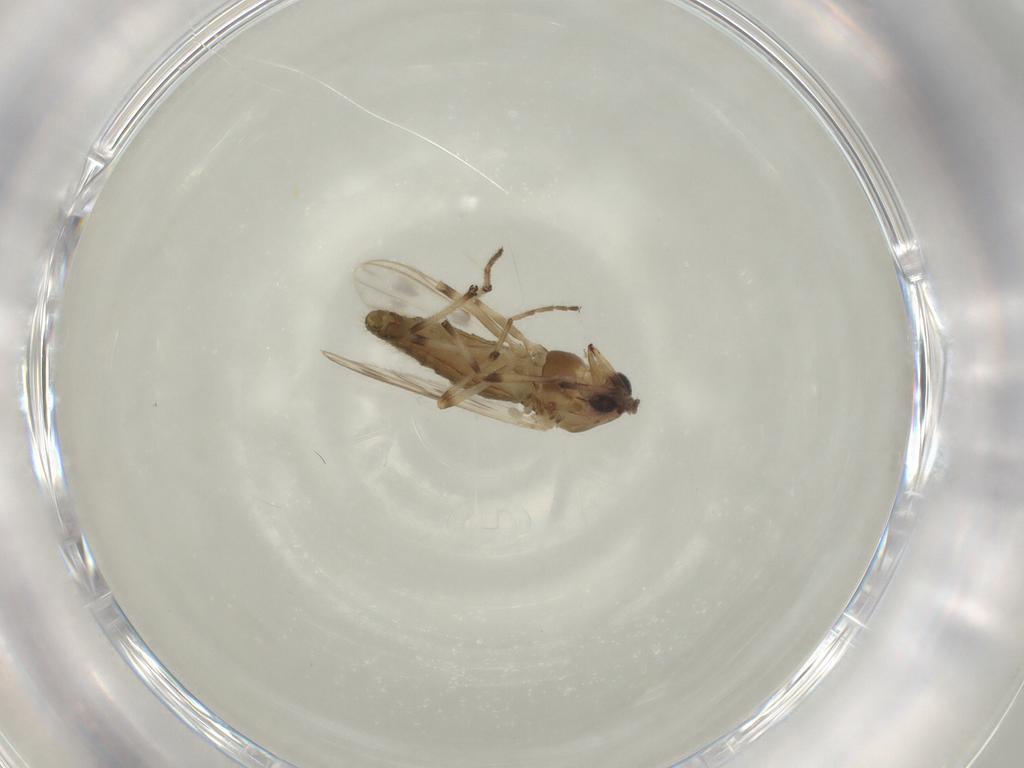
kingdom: Animalia
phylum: Arthropoda
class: Insecta
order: Diptera
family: Chironomidae
